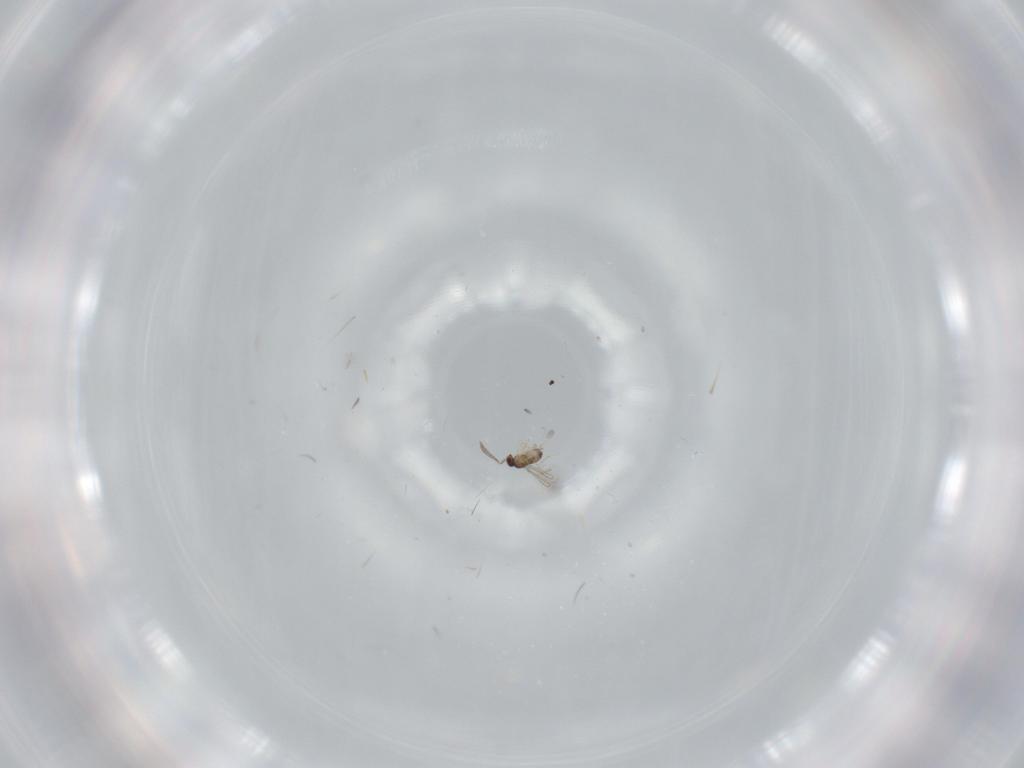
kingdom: Animalia
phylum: Arthropoda
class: Insecta
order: Hymenoptera
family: Mymaridae
